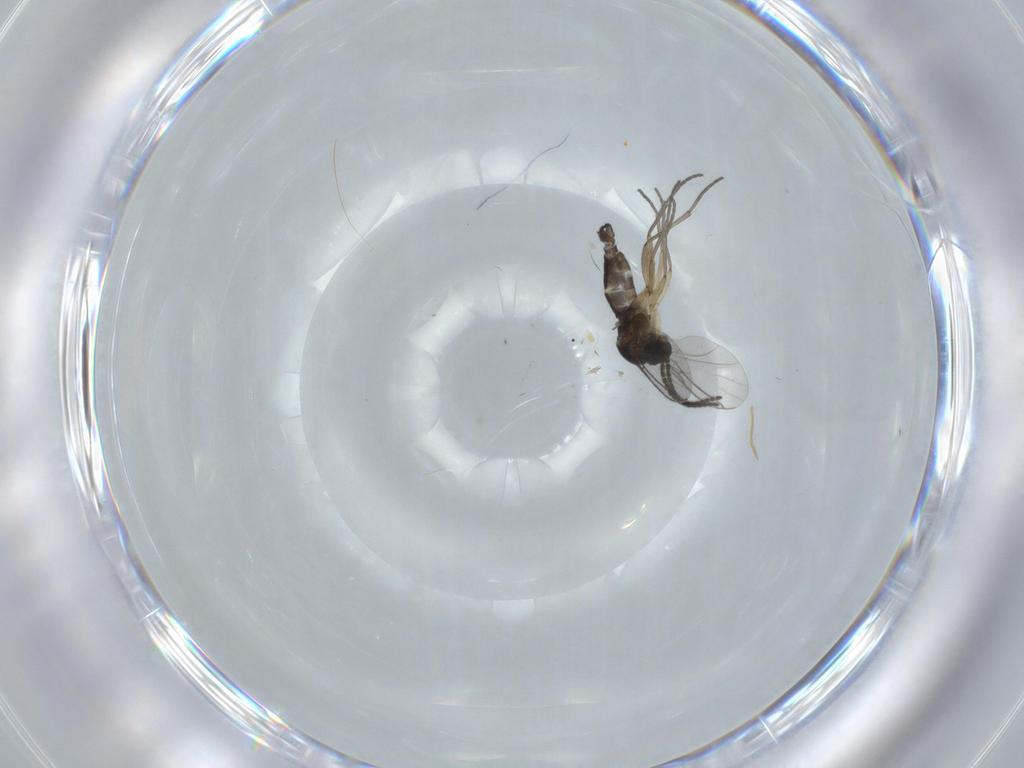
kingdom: Animalia
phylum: Arthropoda
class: Insecta
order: Diptera
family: Sciaridae
